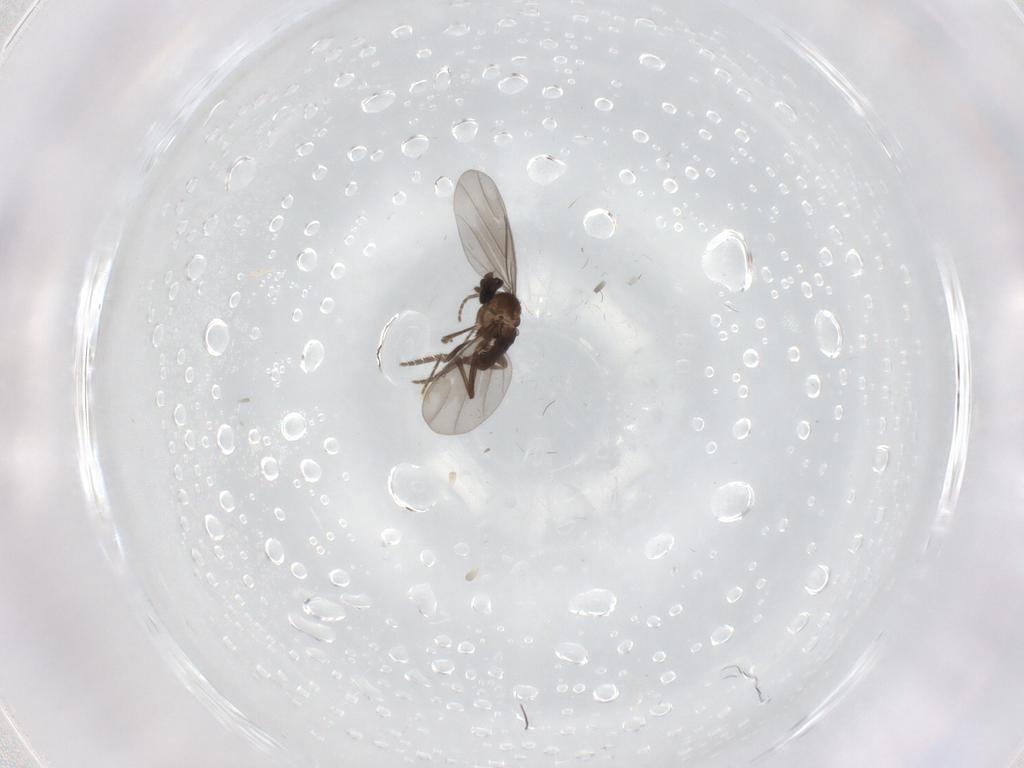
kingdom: Animalia
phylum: Arthropoda
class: Insecta
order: Diptera
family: Phoridae
